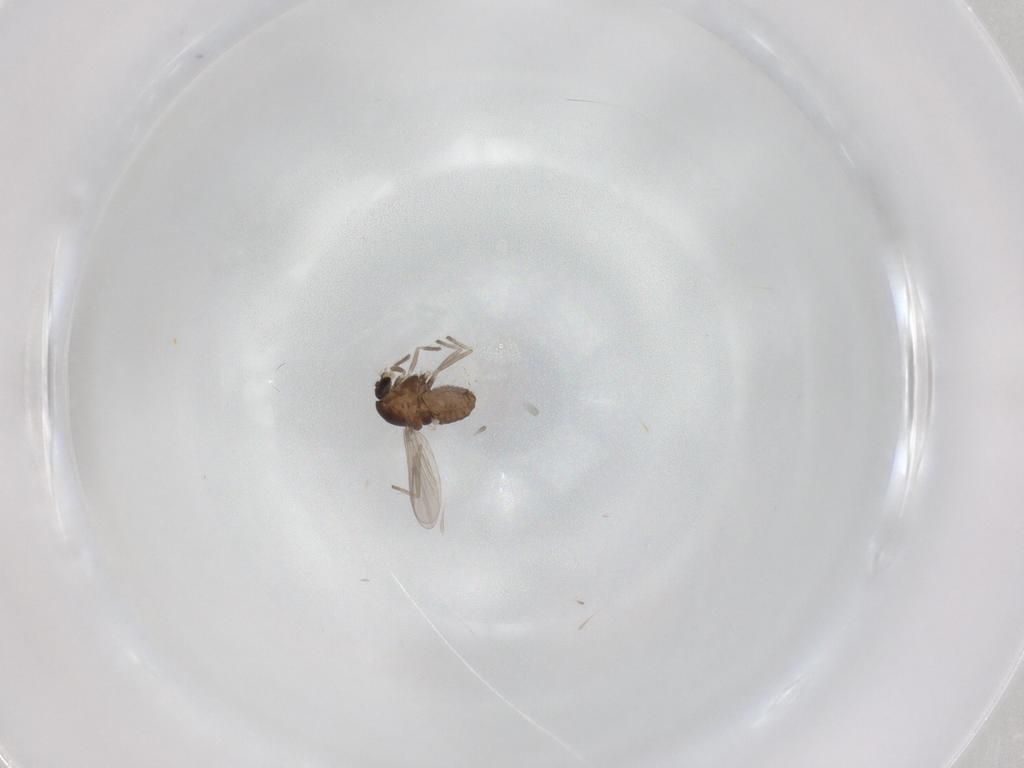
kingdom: Animalia
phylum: Arthropoda
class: Insecta
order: Diptera
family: Chironomidae
